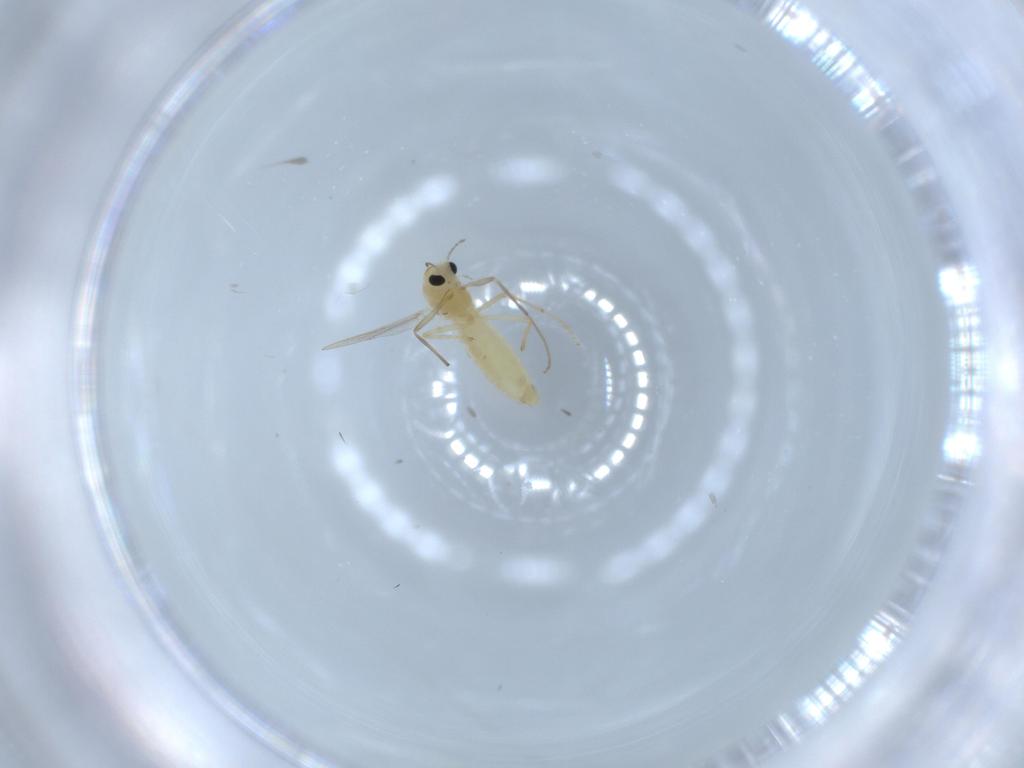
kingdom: Animalia
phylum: Arthropoda
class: Insecta
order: Diptera
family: Chironomidae
